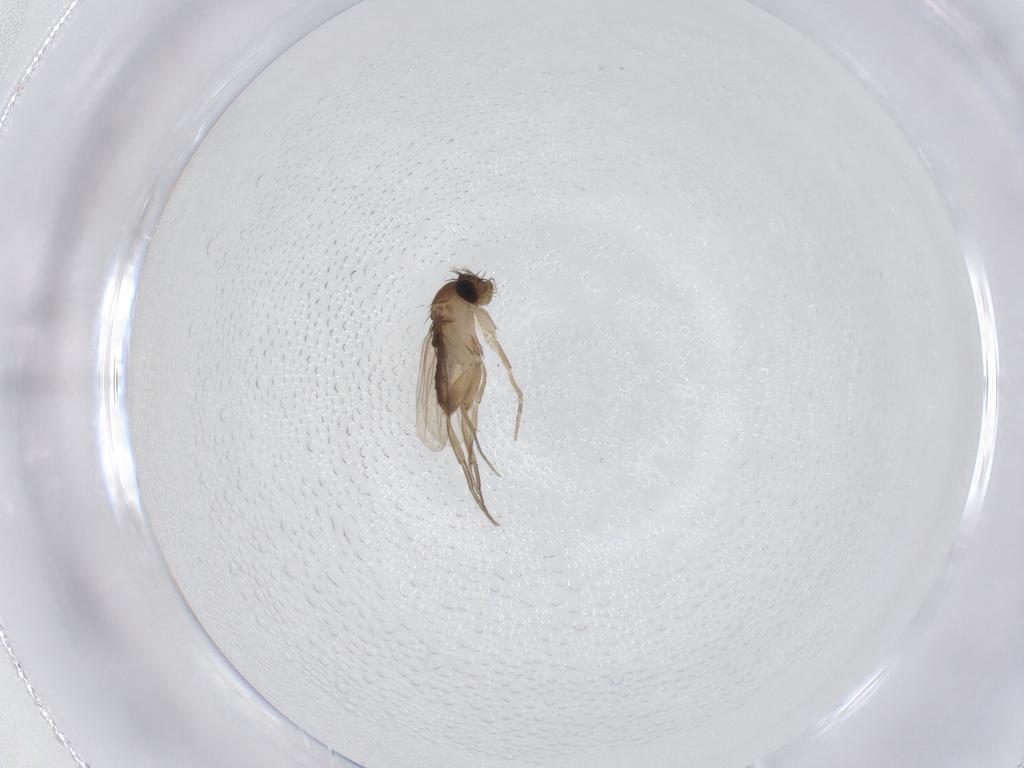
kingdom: Animalia
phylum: Arthropoda
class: Insecta
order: Diptera
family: Phoridae
